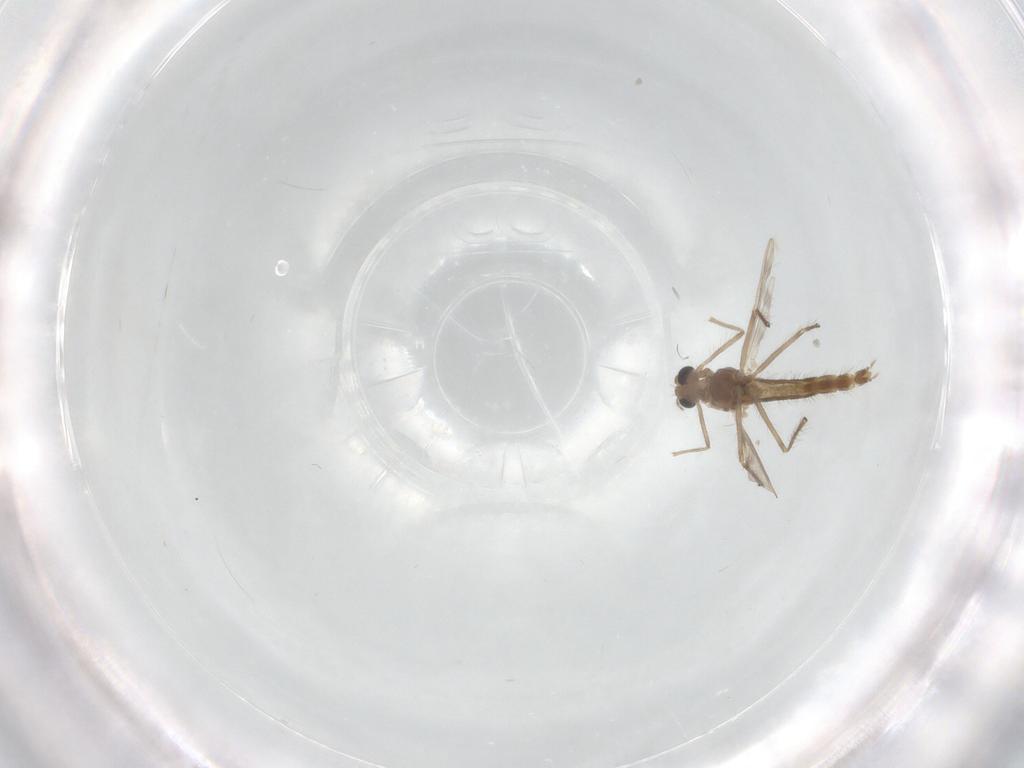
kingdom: Animalia
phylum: Arthropoda
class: Insecta
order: Diptera
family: Chironomidae
